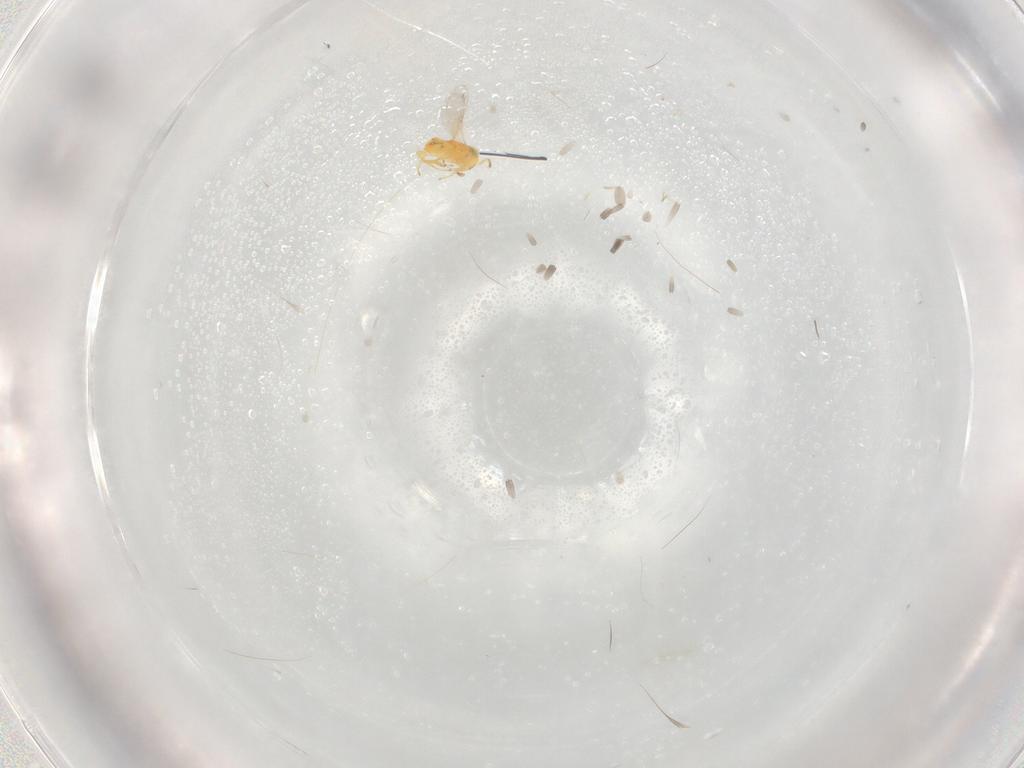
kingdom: Animalia
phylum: Arthropoda
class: Insecta
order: Hymenoptera
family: Encyrtidae
